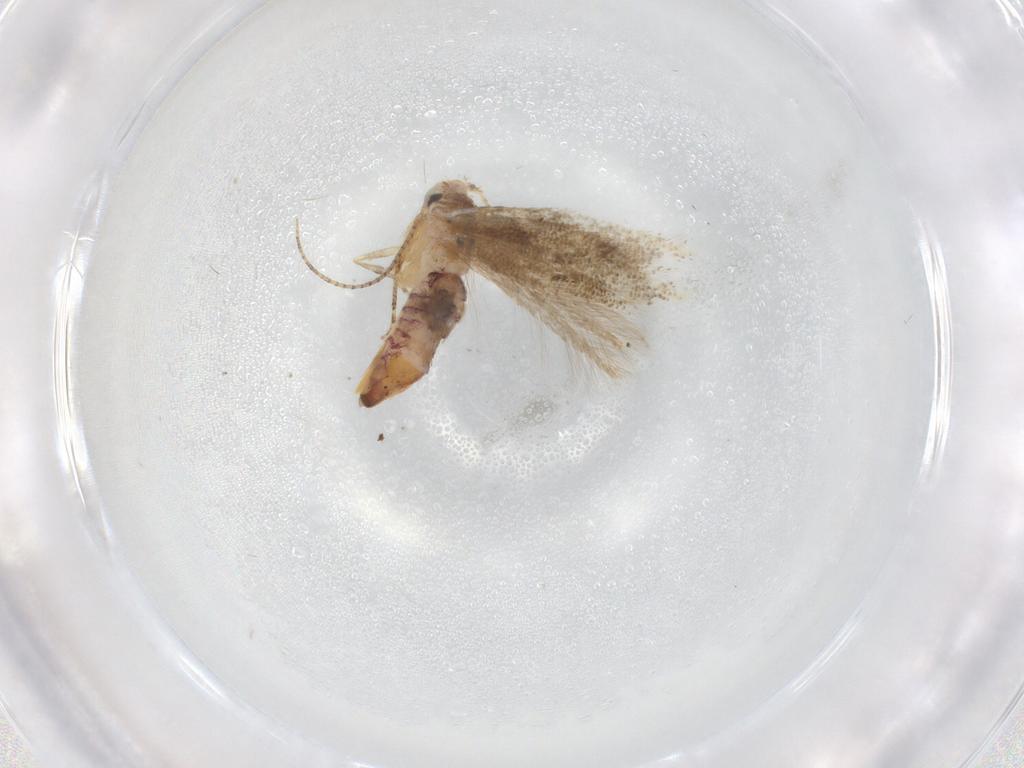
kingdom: Animalia
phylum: Arthropoda
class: Insecta
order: Lepidoptera
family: Bucculatricidae
